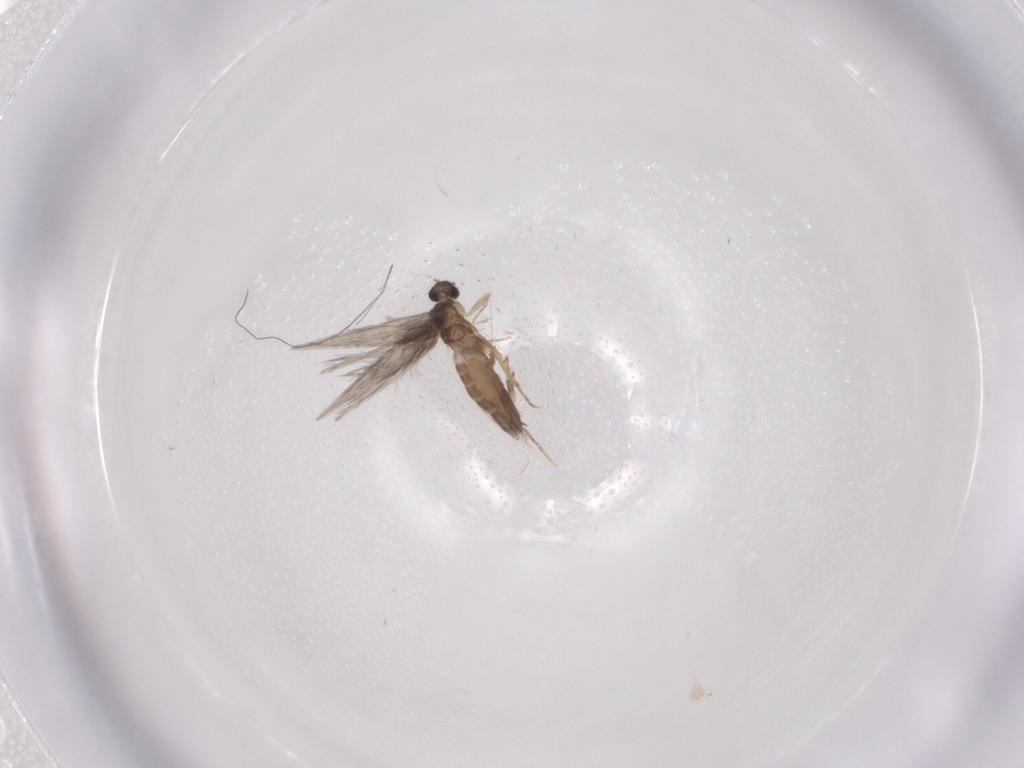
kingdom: Animalia
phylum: Arthropoda
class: Insecta
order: Trichoptera
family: Hydroptilidae
